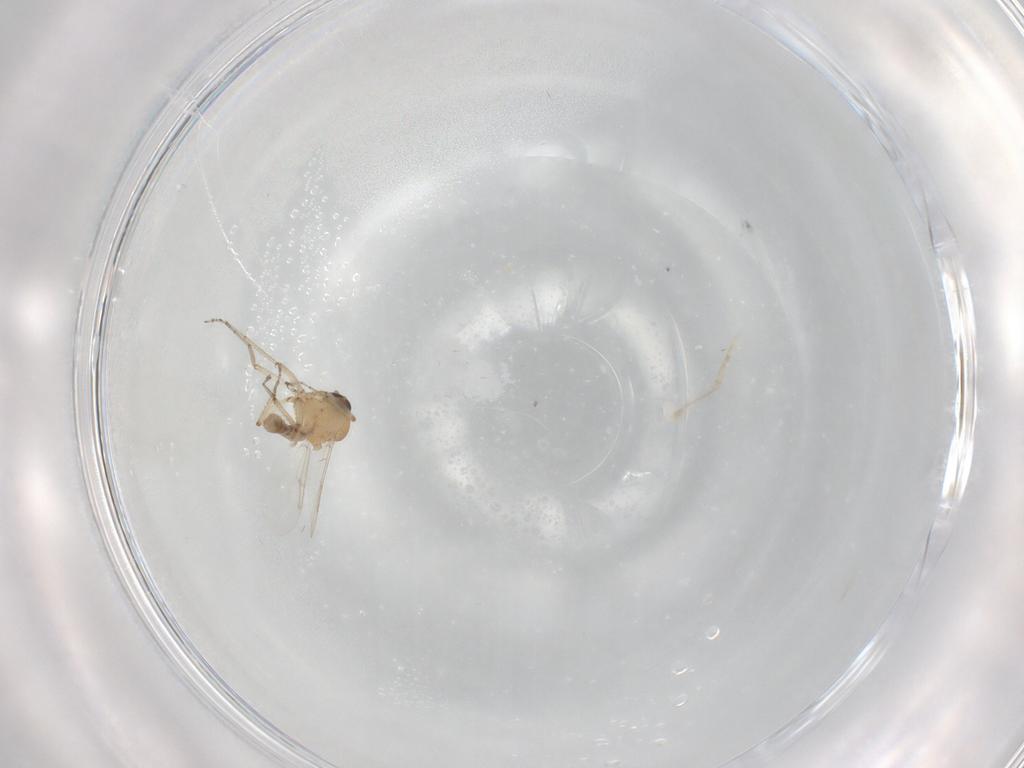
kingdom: Animalia
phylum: Arthropoda
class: Insecta
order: Diptera
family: Ceratopogonidae
